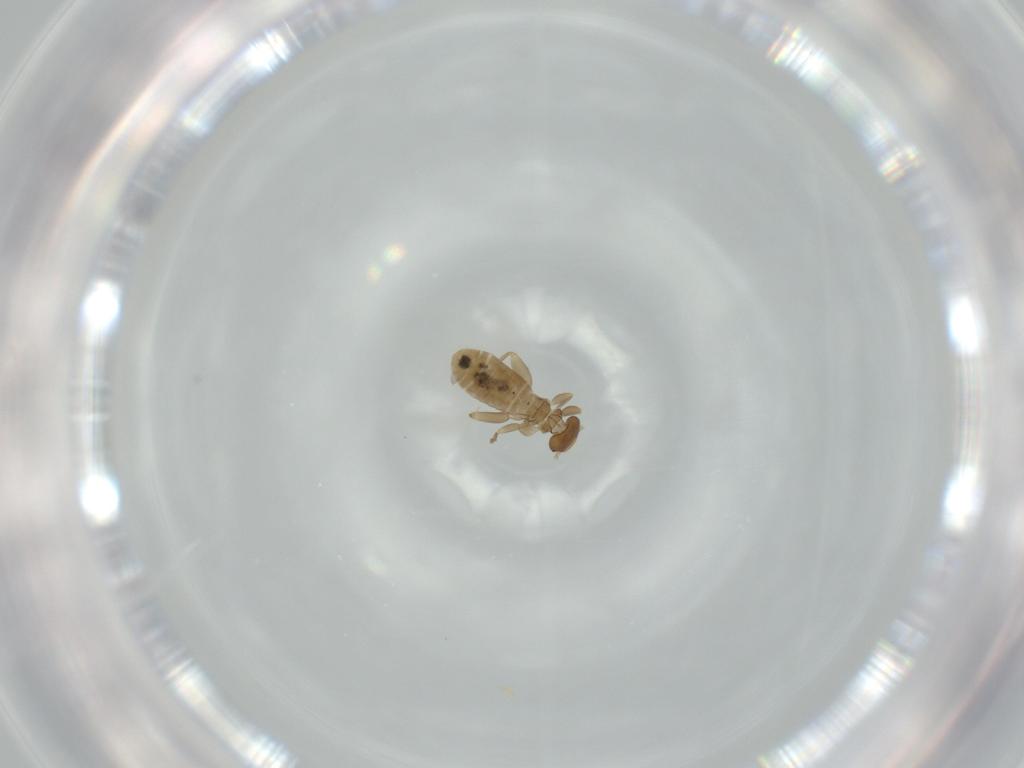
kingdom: Animalia
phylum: Arthropoda
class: Insecta
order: Psocodea
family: Liposcelididae
